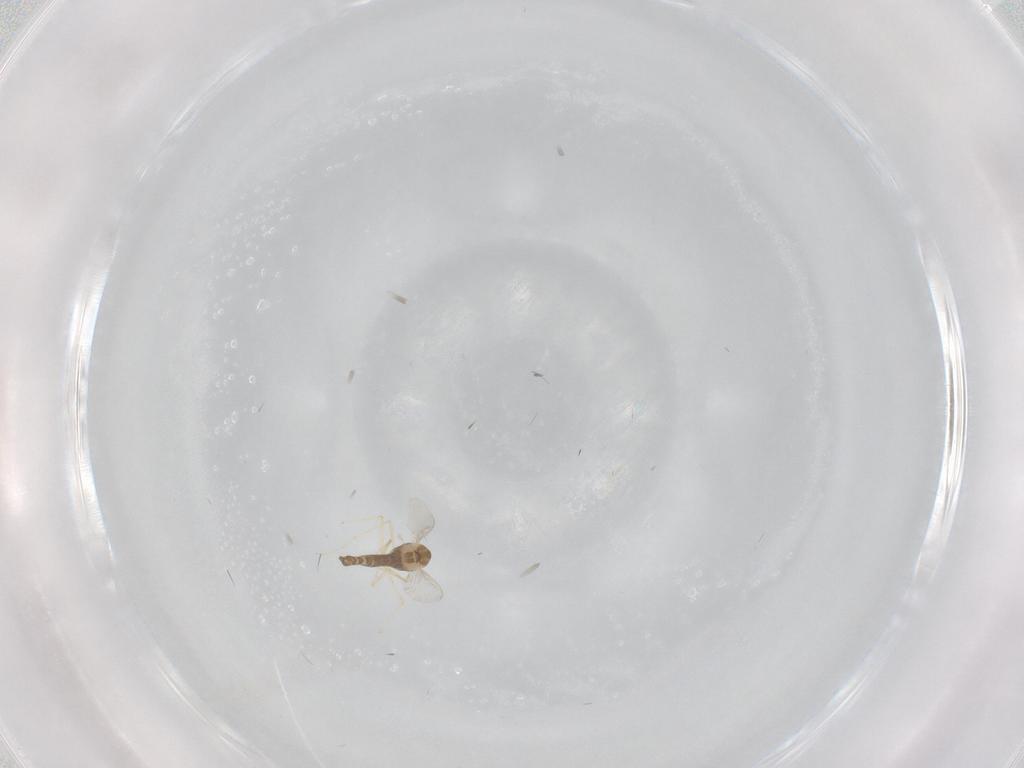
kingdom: Animalia
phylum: Arthropoda
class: Insecta
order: Diptera
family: Chironomidae
